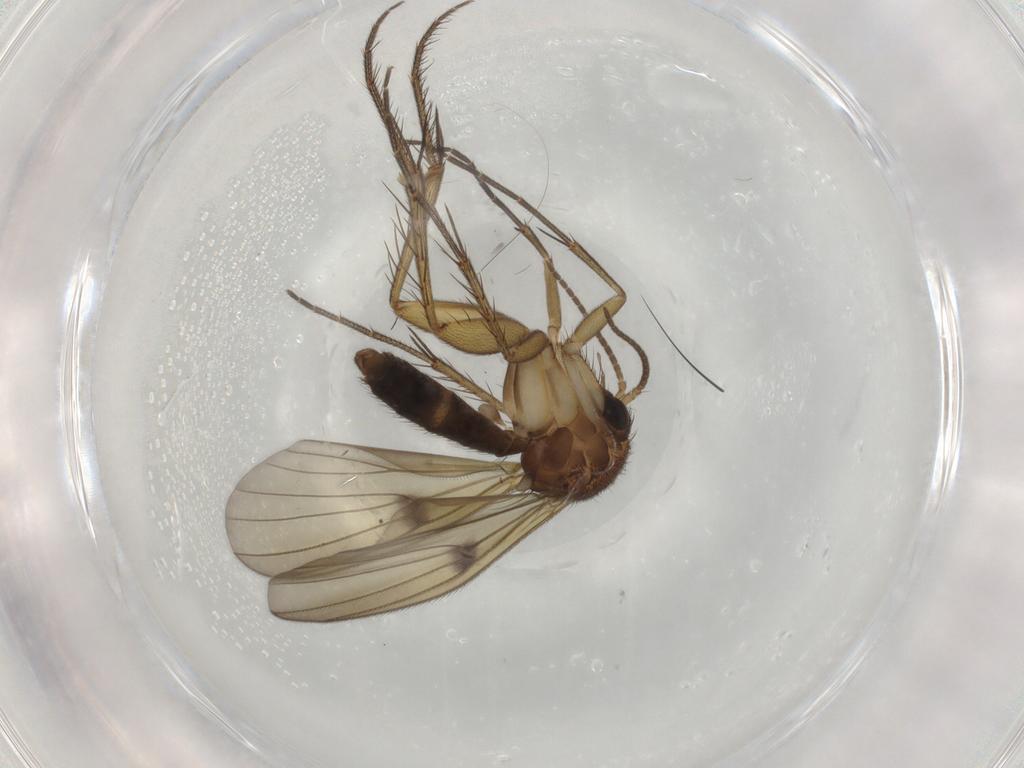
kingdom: Animalia
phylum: Arthropoda
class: Insecta
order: Diptera
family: Mycetophilidae
